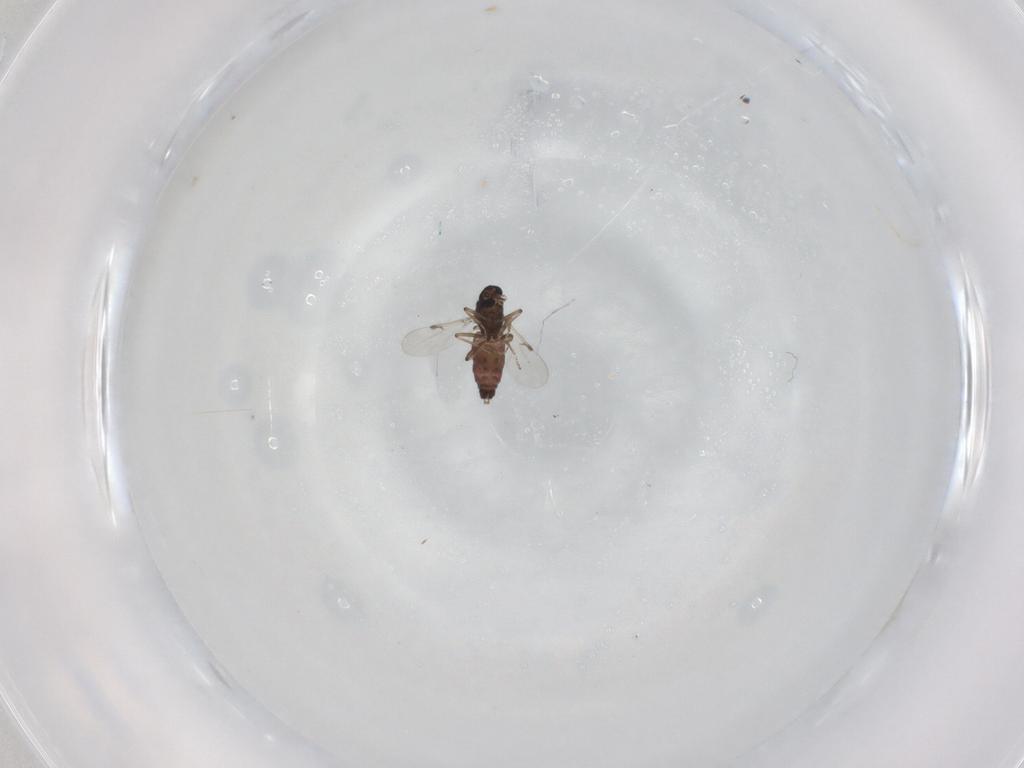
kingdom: Animalia
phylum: Arthropoda
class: Insecta
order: Diptera
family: Ceratopogonidae
